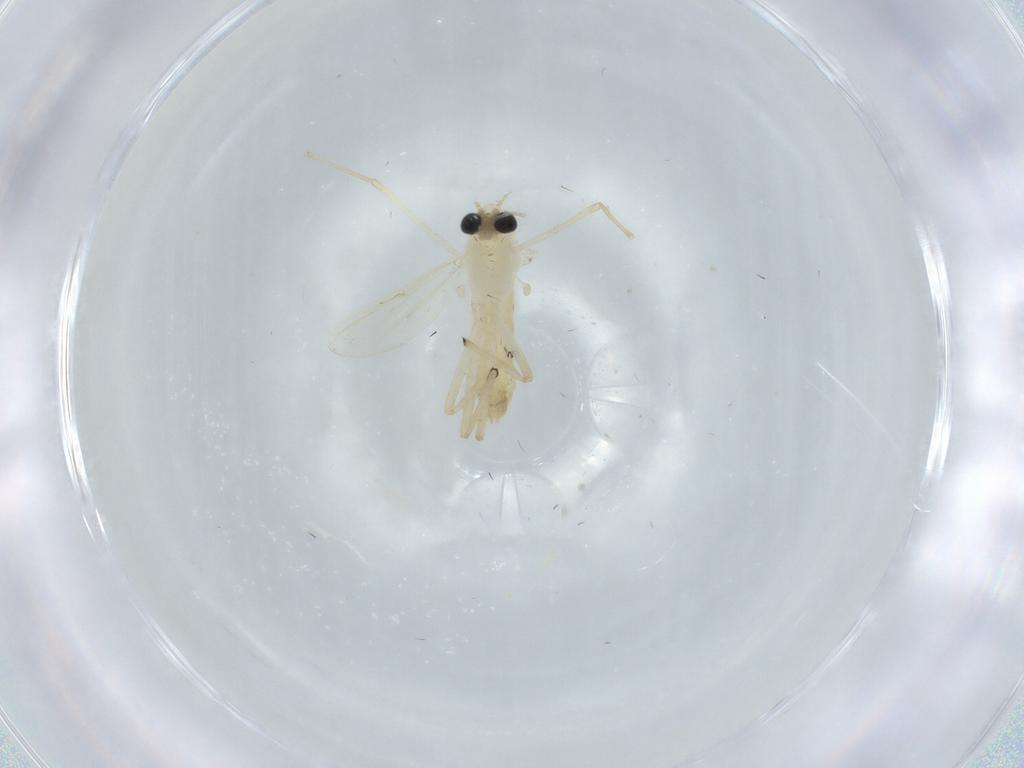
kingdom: Animalia
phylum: Arthropoda
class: Insecta
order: Diptera
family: Chironomidae
